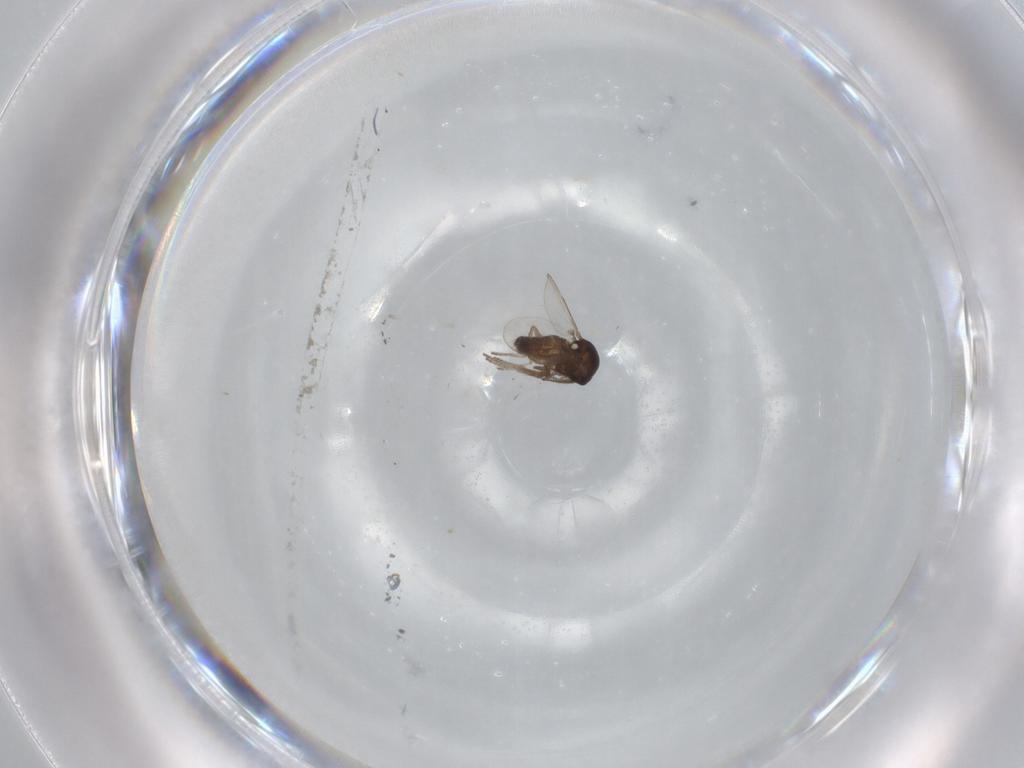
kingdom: Animalia
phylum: Arthropoda
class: Insecta
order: Diptera
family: Ceratopogonidae
